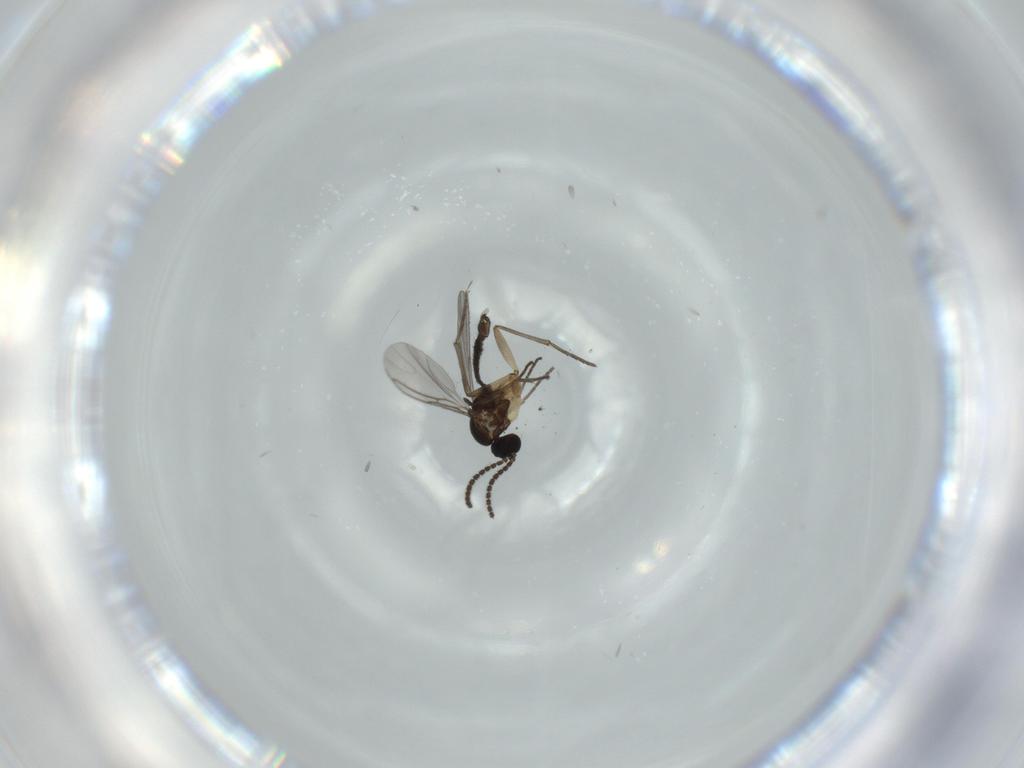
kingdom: Animalia
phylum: Arthropoda
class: Insecta
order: Diptera
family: Sciaridae
